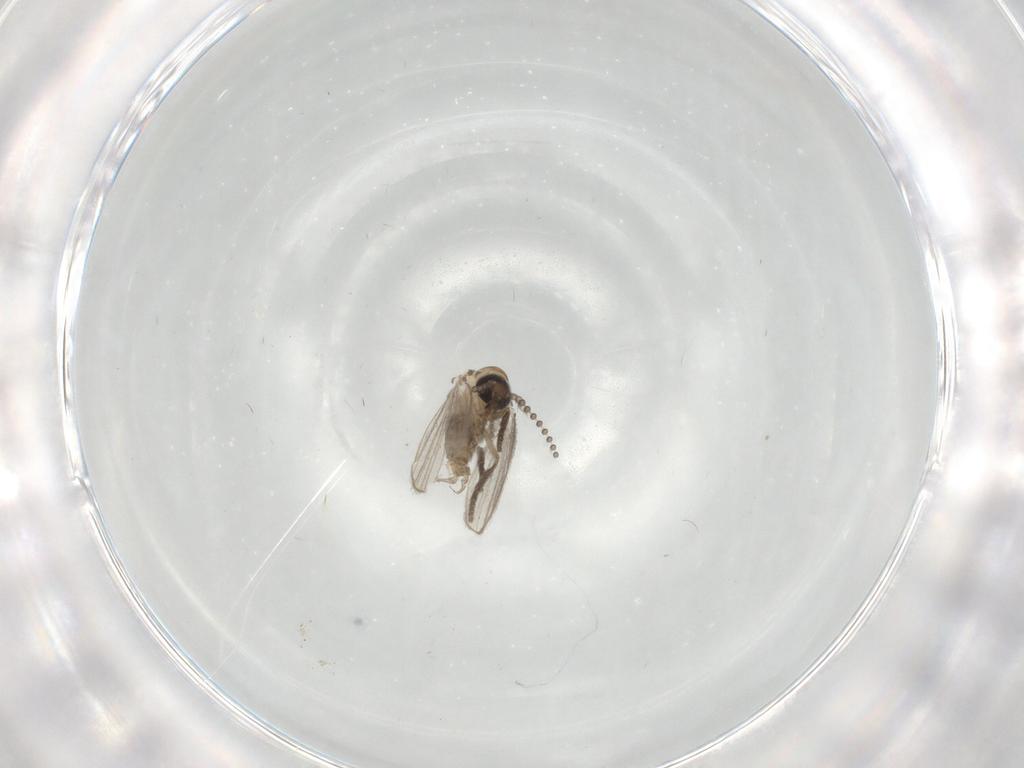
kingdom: Animalia
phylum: Arthropoda
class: Insecta
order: Diptera
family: Psychodidae
